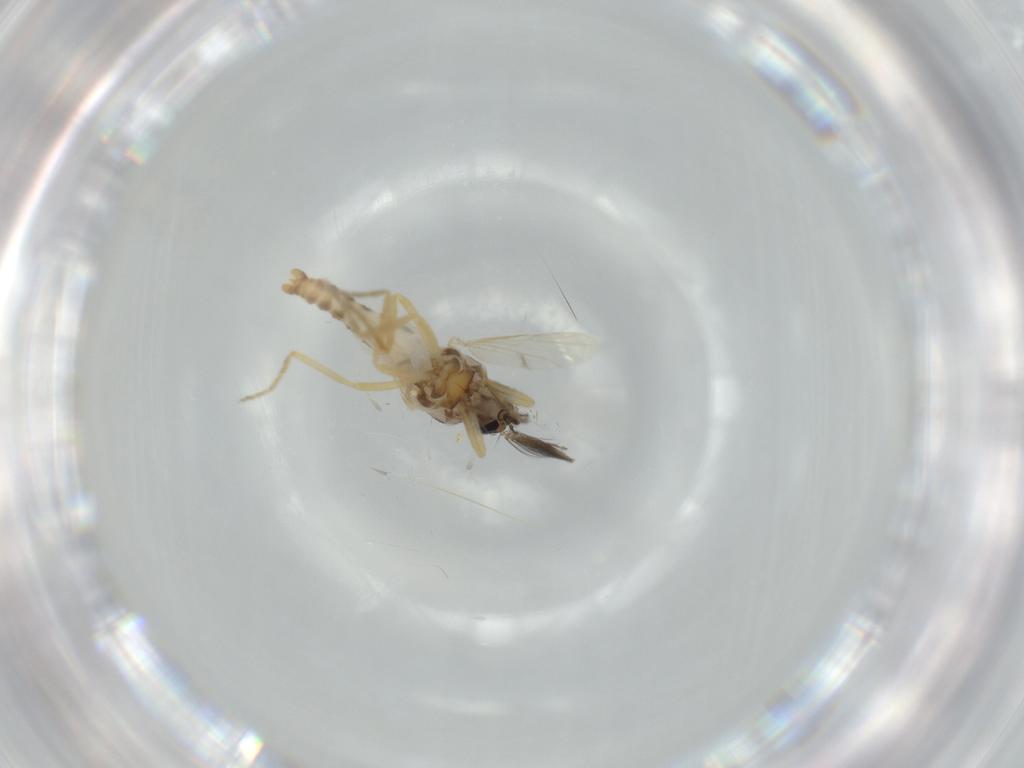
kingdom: Animalia
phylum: Arthropoda
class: Insecta
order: Diptera
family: Ceratopogonidae
